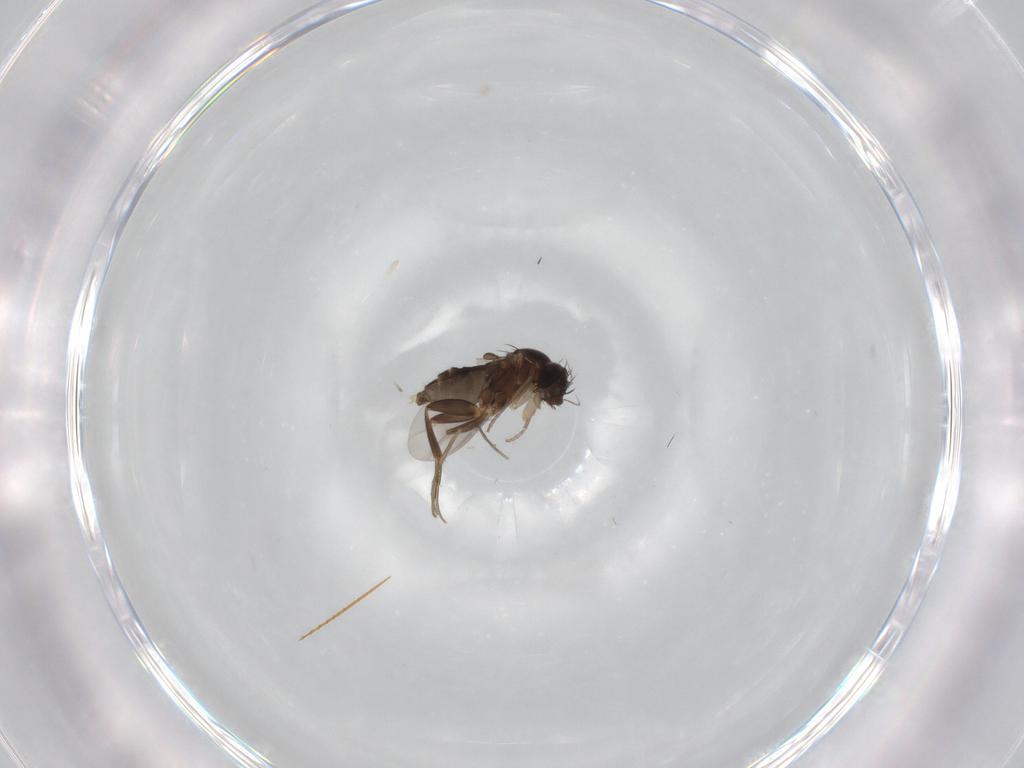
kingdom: Animalia
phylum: Arthropoda
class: Insecta
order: Diptera
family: Phoridae
